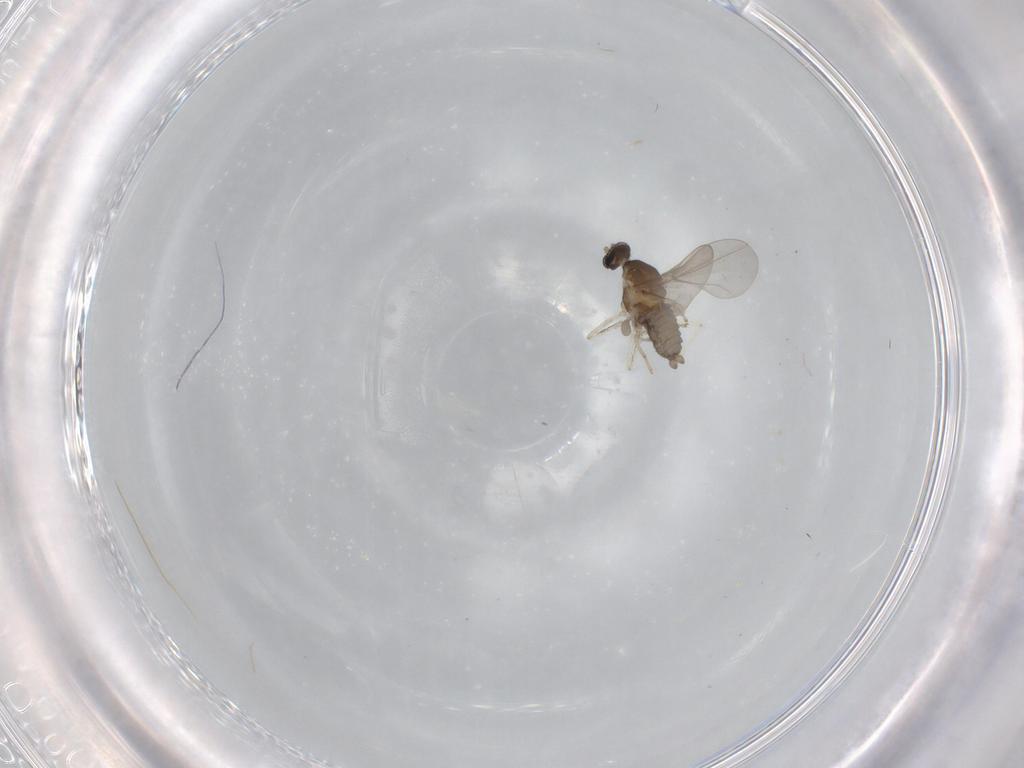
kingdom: Animalia
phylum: Arthropoda
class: Insecta
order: Diptera
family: Cecidomyiidae
